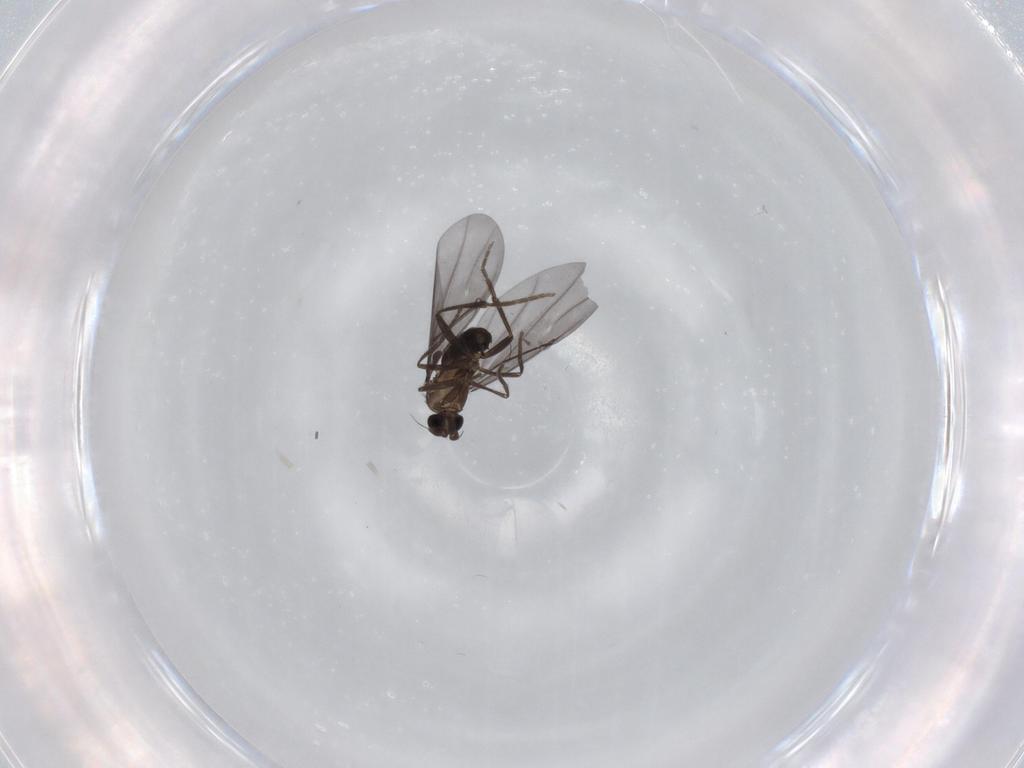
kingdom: Animalia
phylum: Arthropoda
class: Insecta
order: Diptera
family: Phoridae
